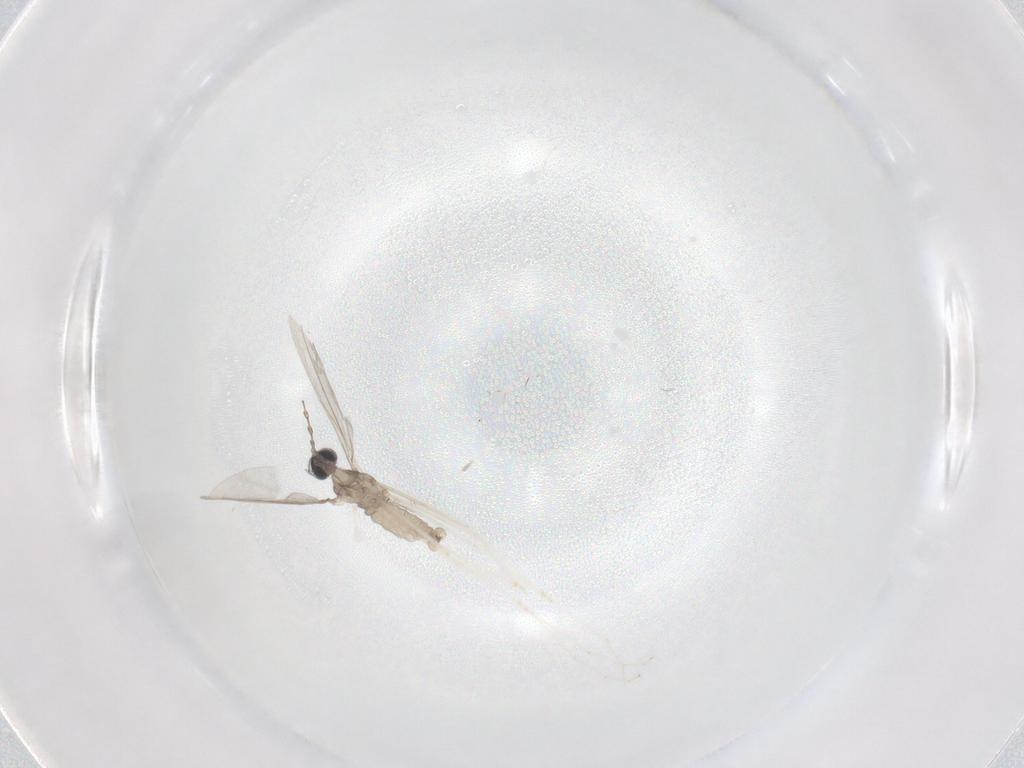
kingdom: Animalia
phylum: Arthropoda
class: Insecta
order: Diptera
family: Cecidomyiidae
